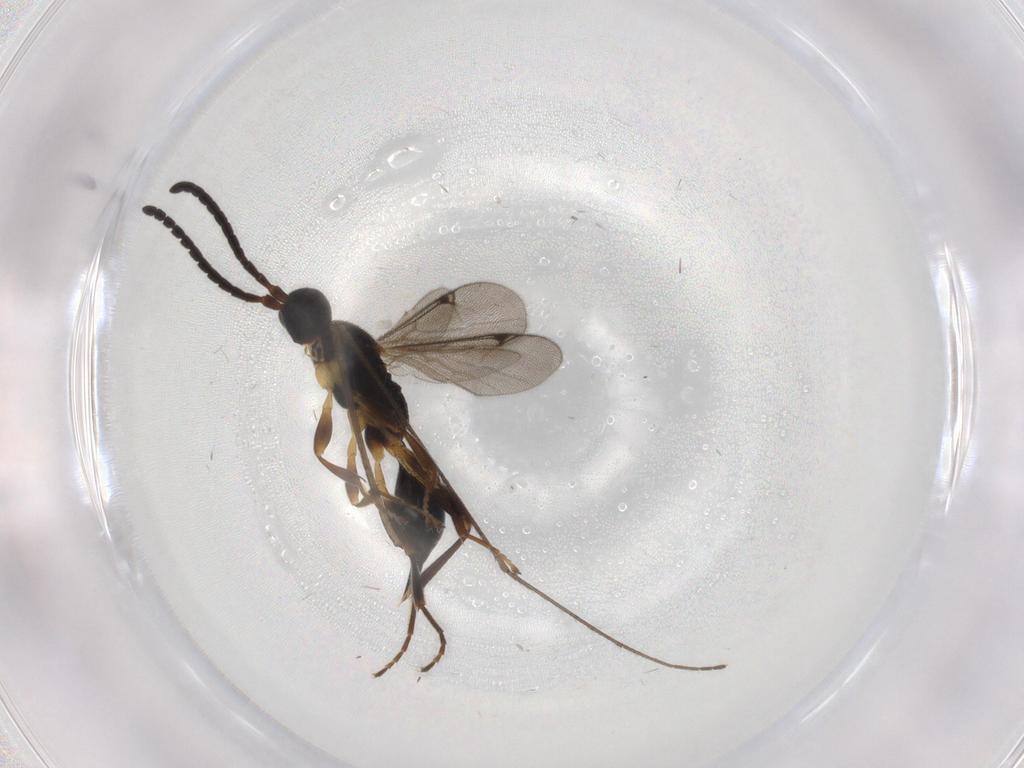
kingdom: Animalia
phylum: Arthropoda
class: Insecta
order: Hymenoptera
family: Proctotrupidae
